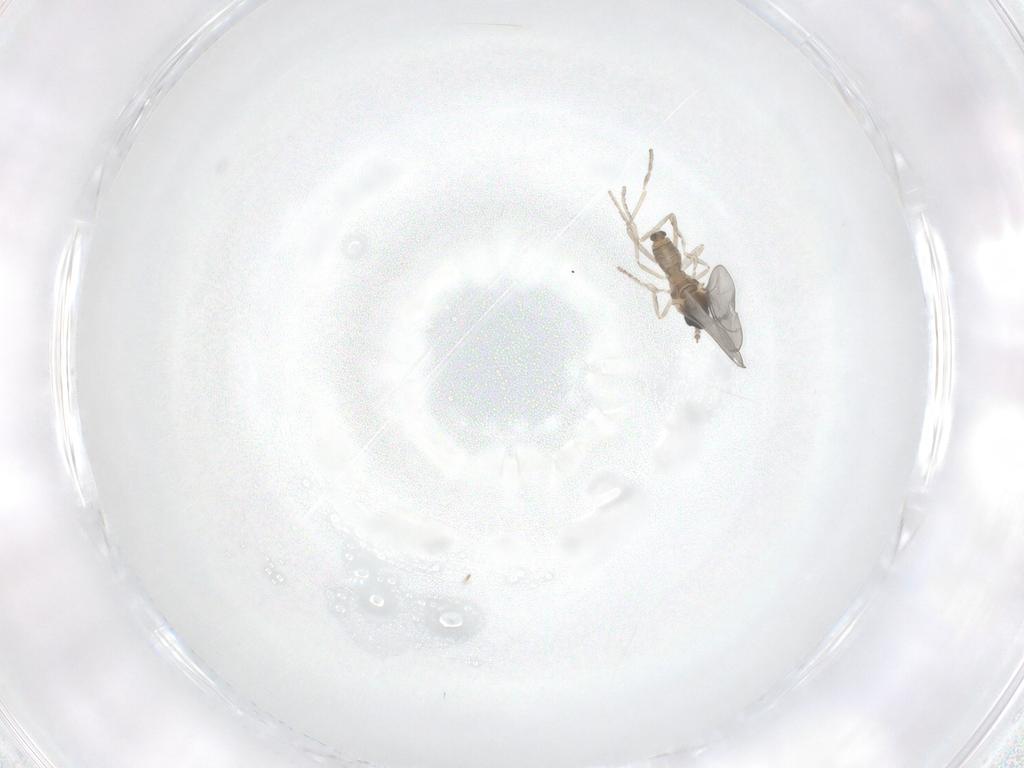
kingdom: Animalia
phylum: Arthropoda
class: Insecta
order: Diptera
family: Cecidomyiidae
